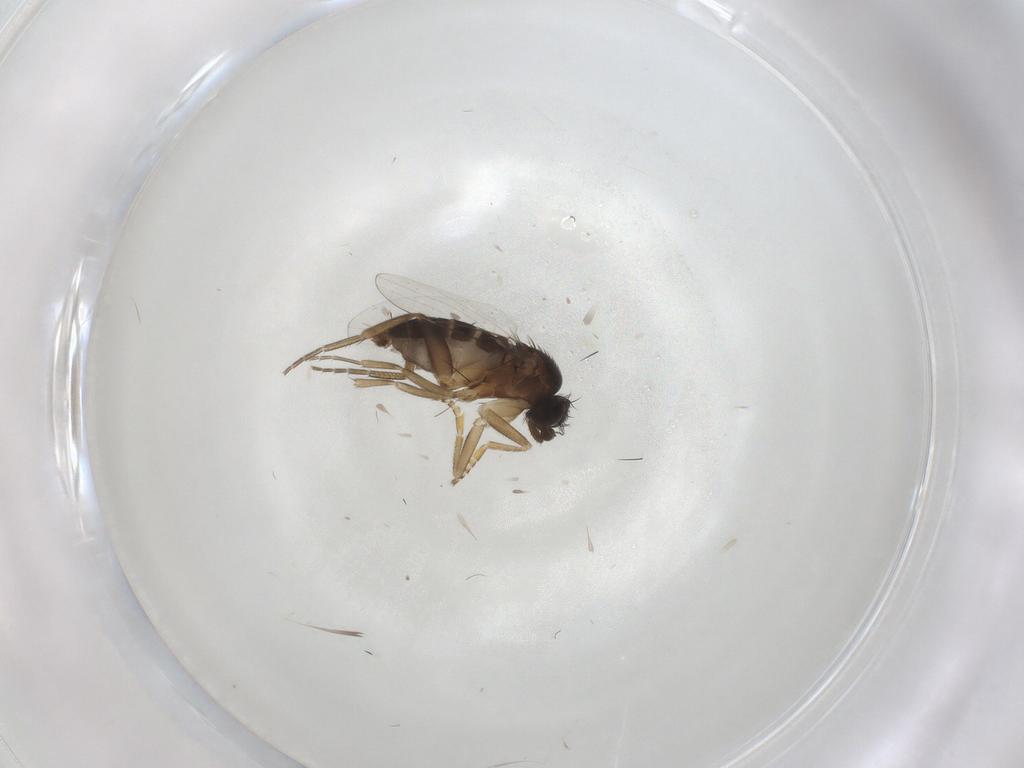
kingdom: Animalia
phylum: Arthropoda
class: Insecta
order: Diptera
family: Phoridae
